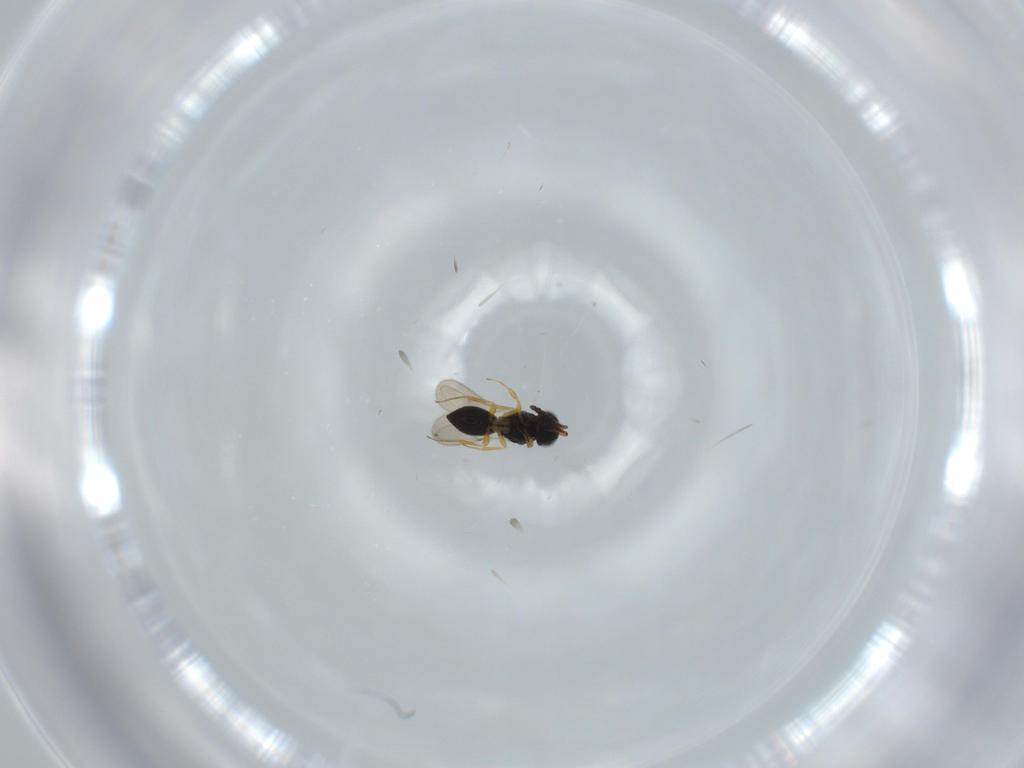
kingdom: Animalia
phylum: Arthropoda
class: Insecta
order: Hymenoptera
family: Scelionidae
